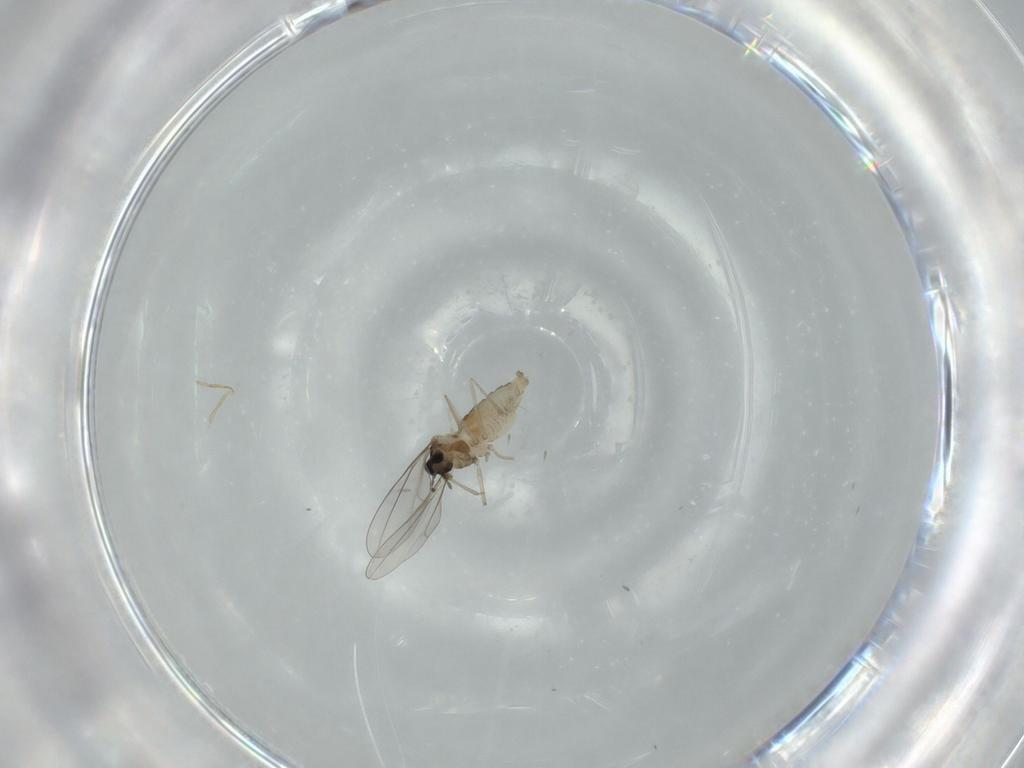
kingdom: Animalia
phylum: Arthropoda
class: Insecta
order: Diptera
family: Cecidomyiidae
